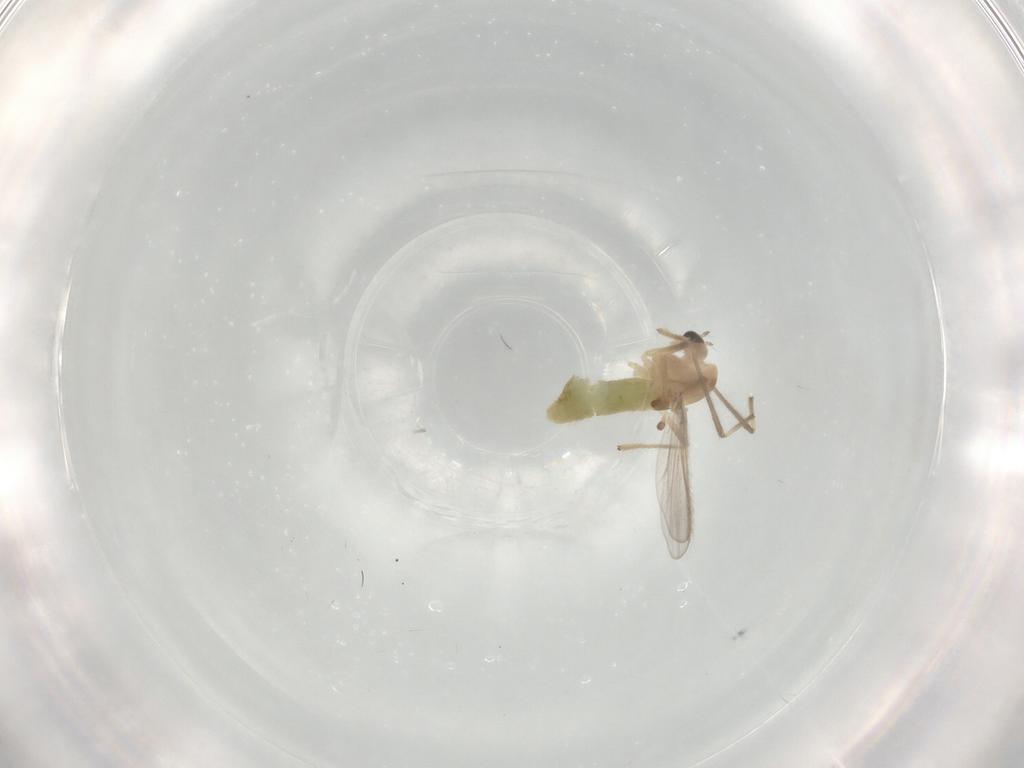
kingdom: Animalia
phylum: Arthropoda
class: Insecta
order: Diptera
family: Chironomidae
